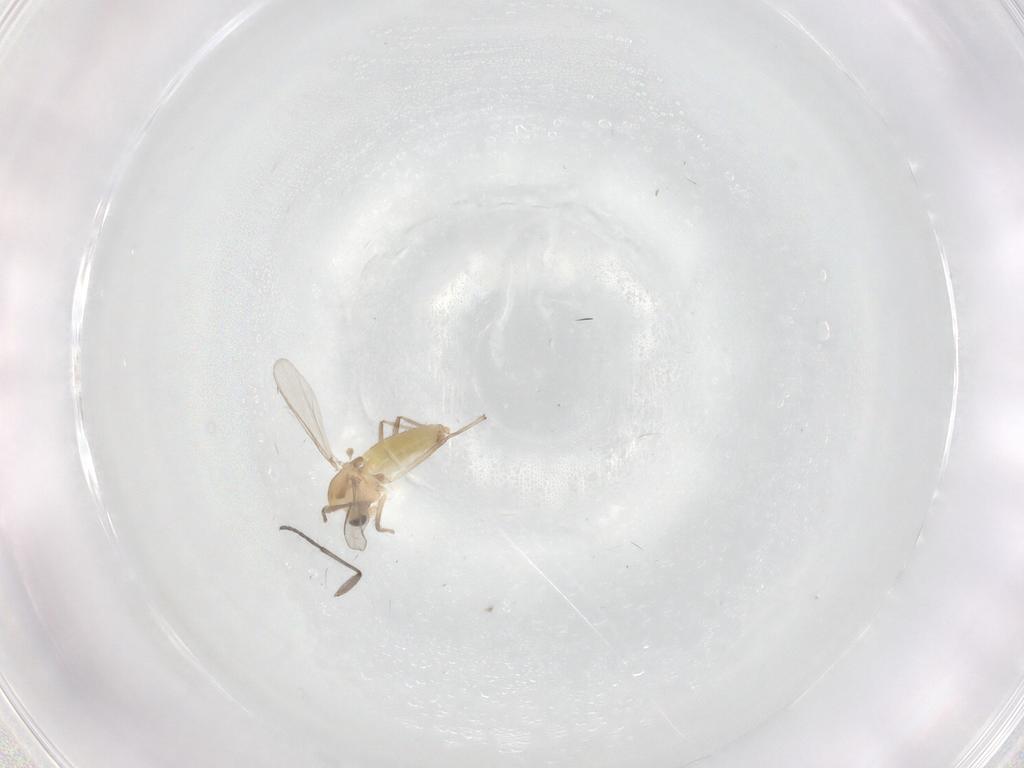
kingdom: Animalia
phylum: Arthropoda
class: Insecta
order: Diptera
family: Chironomidae
